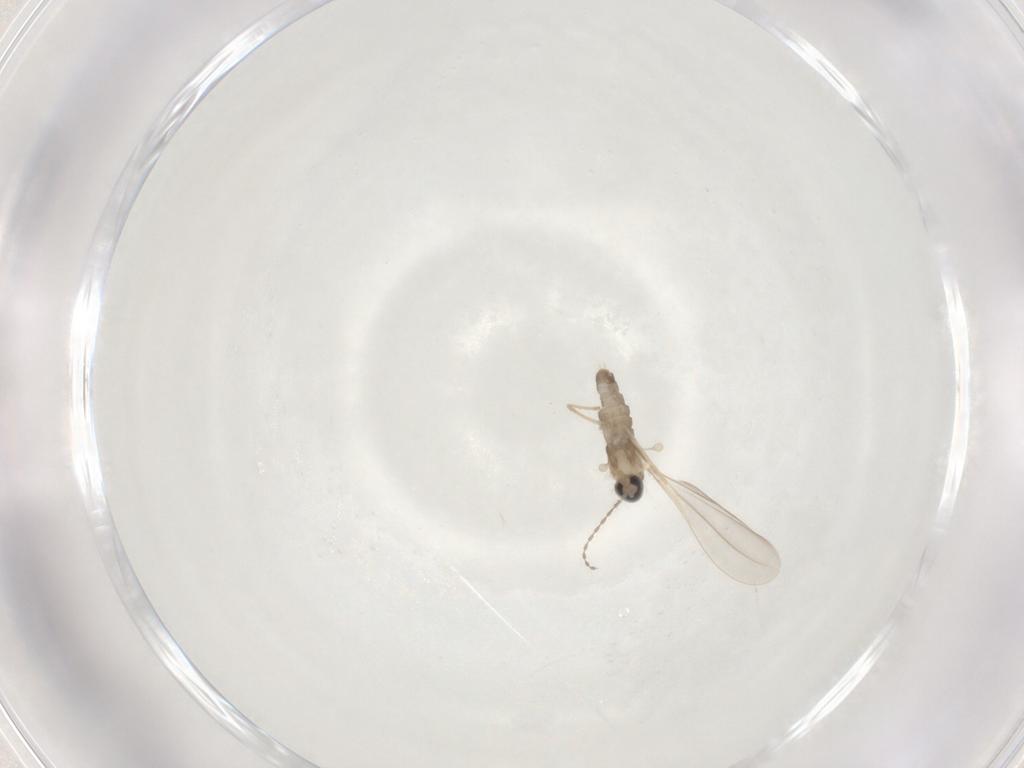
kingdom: Animalia
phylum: Arthropoda
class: Insecta
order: Diptera
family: Cecidomyiidae
